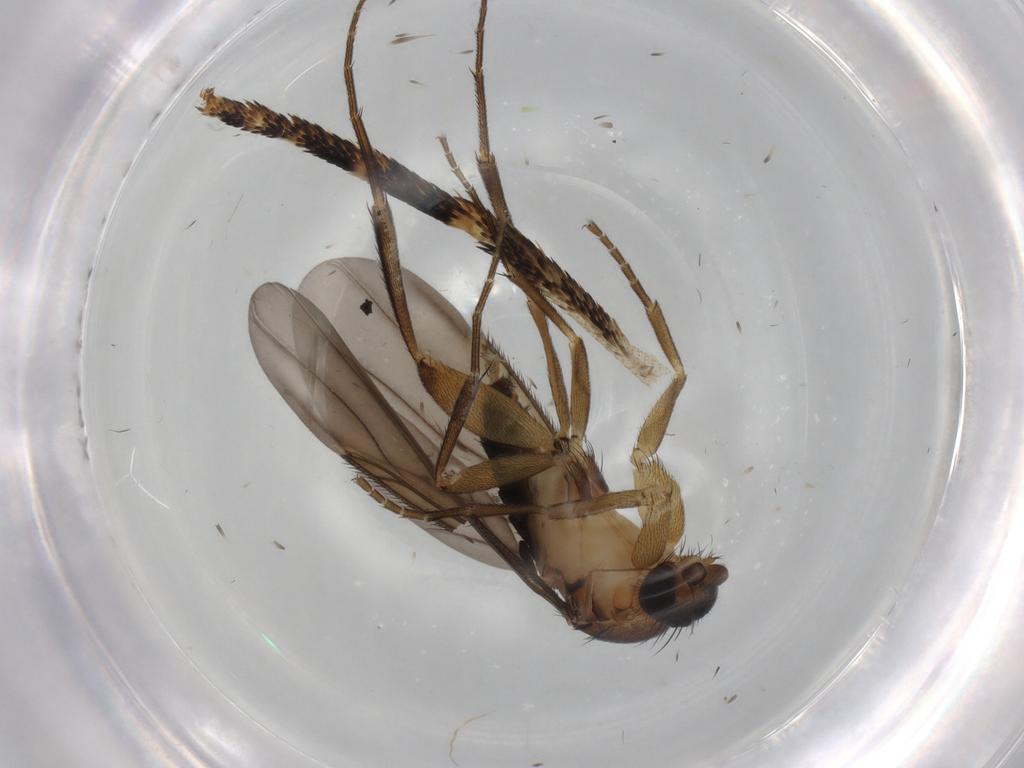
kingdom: Animalia
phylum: Arthropoda
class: Insecta
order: Diptera
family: Phoridae
